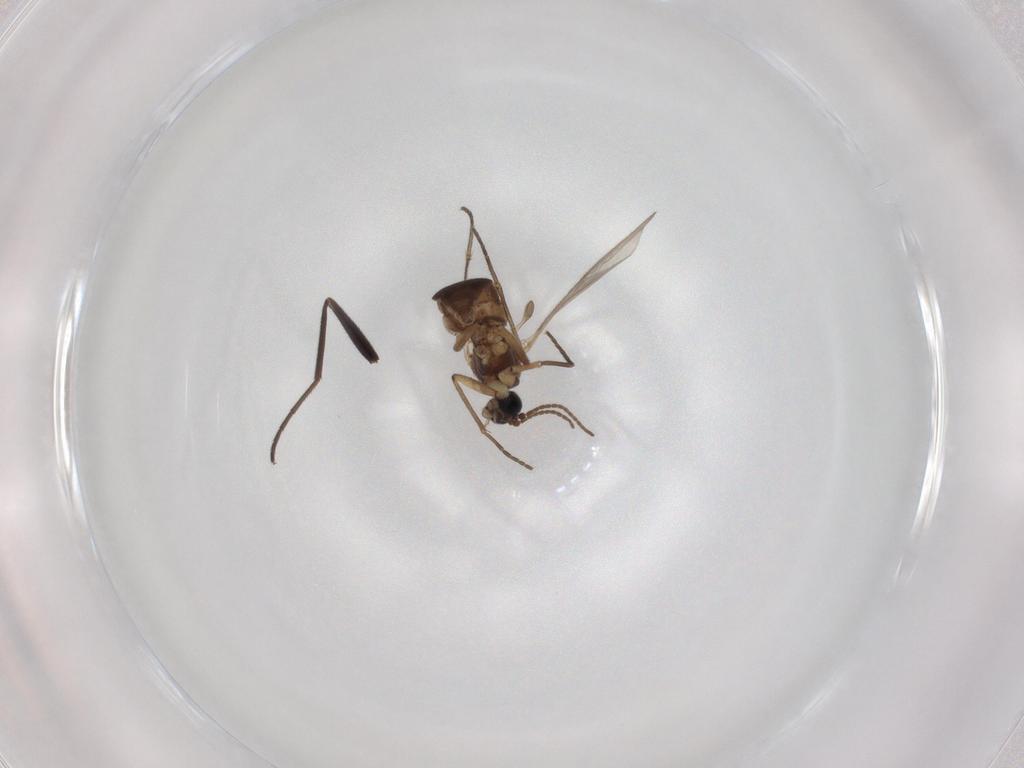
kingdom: Animalia
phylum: Arthropoda
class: Insecta
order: Diptera
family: Dolichopodidae
